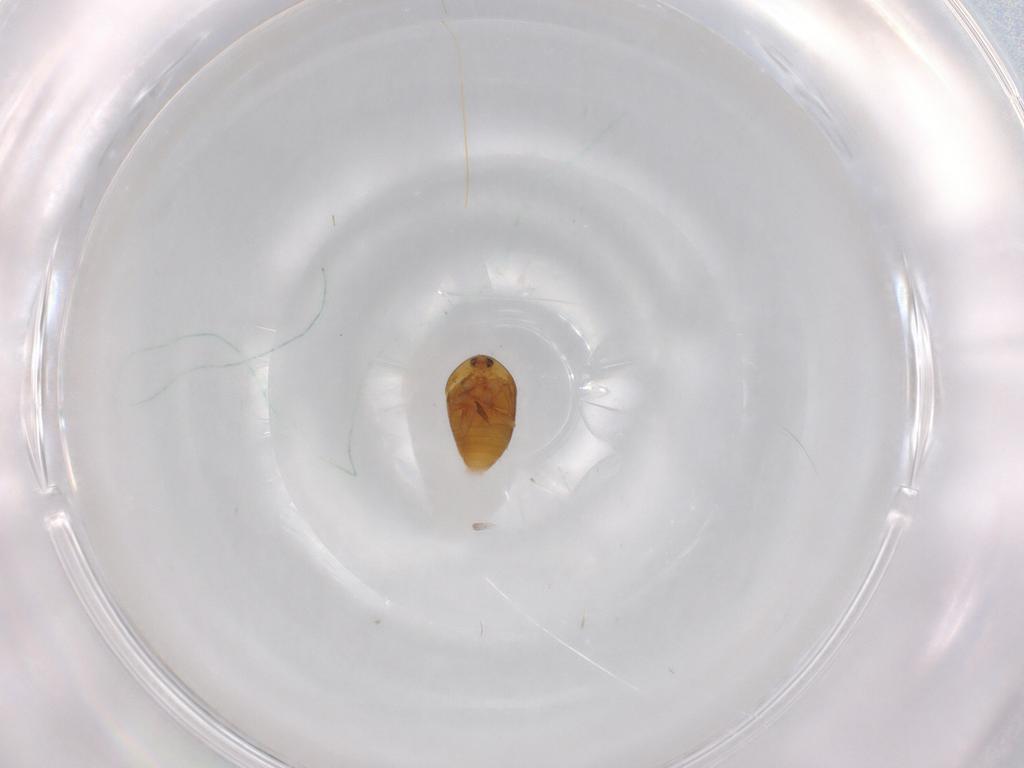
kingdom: Animalia
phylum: Arthropoda
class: Insecta
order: Coleoptera
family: Corylophidae
